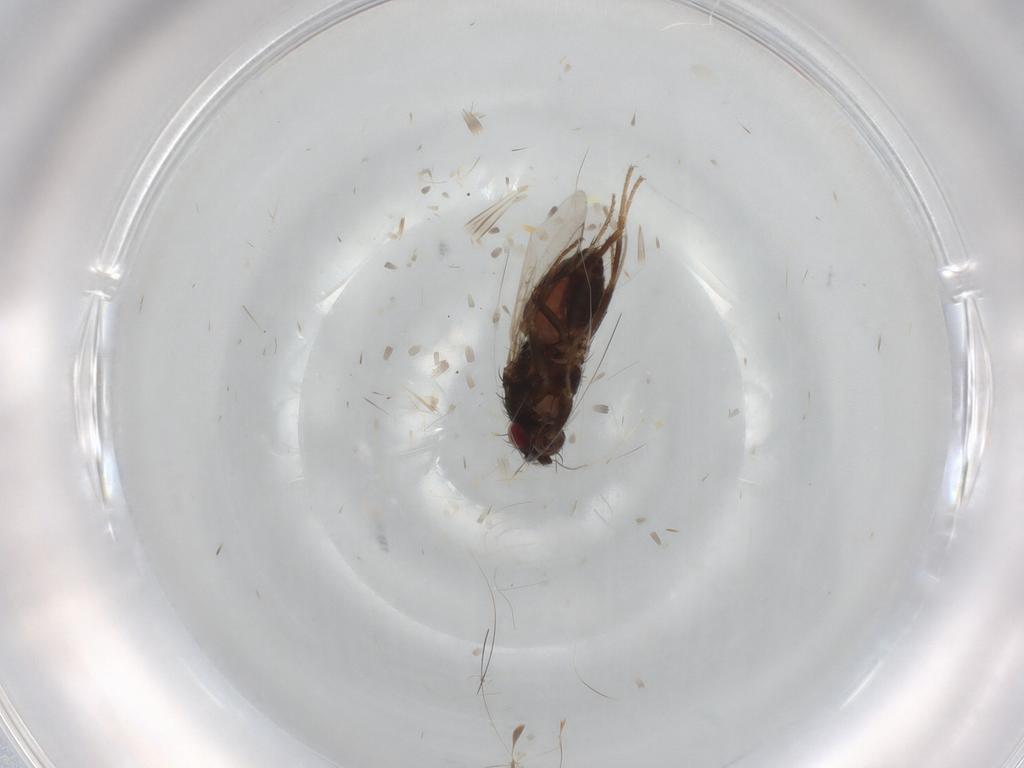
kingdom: Animalia
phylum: Arthropoda
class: Insecta
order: Diptera
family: Sphaeroceridae
